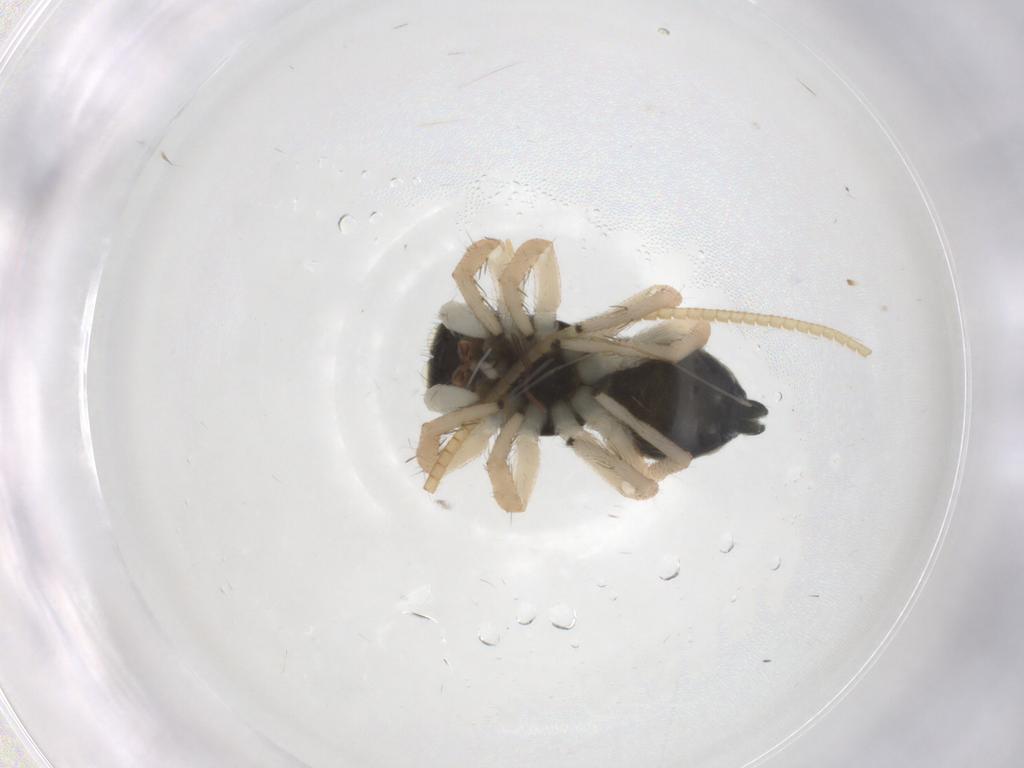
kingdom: Animalia
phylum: Arthropoda
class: Arachnida
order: Araneae
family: Salticidae
